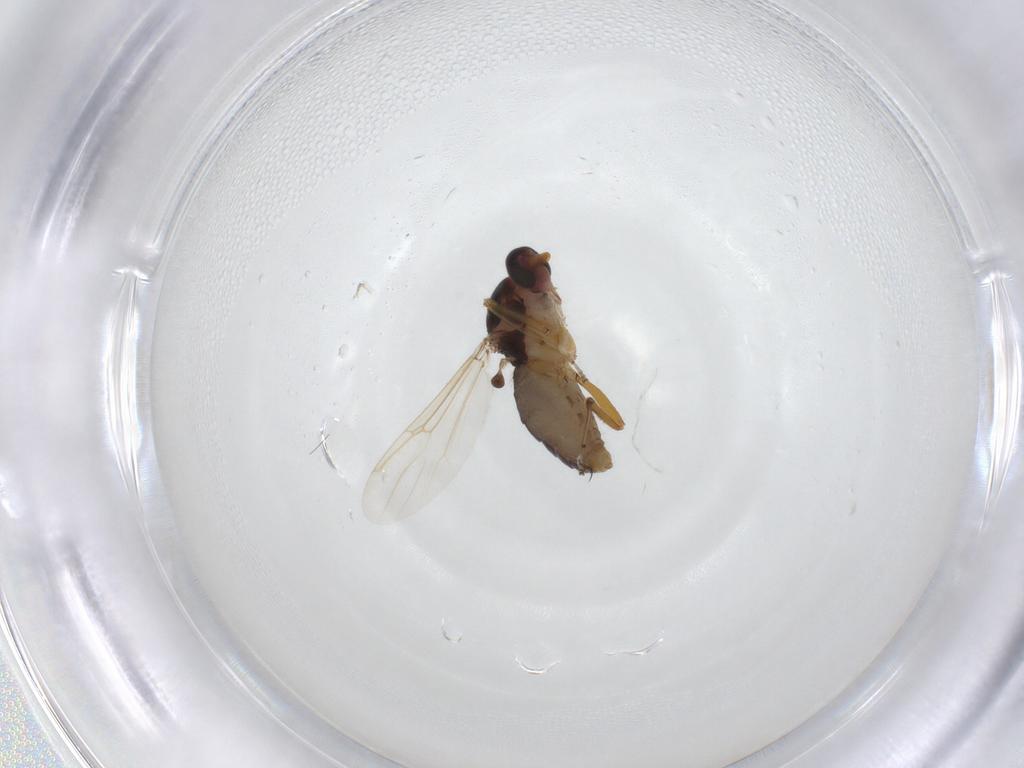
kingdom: Animalia
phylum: Arthropoda
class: Insecta
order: Diptera
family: Ceratopogonidae
